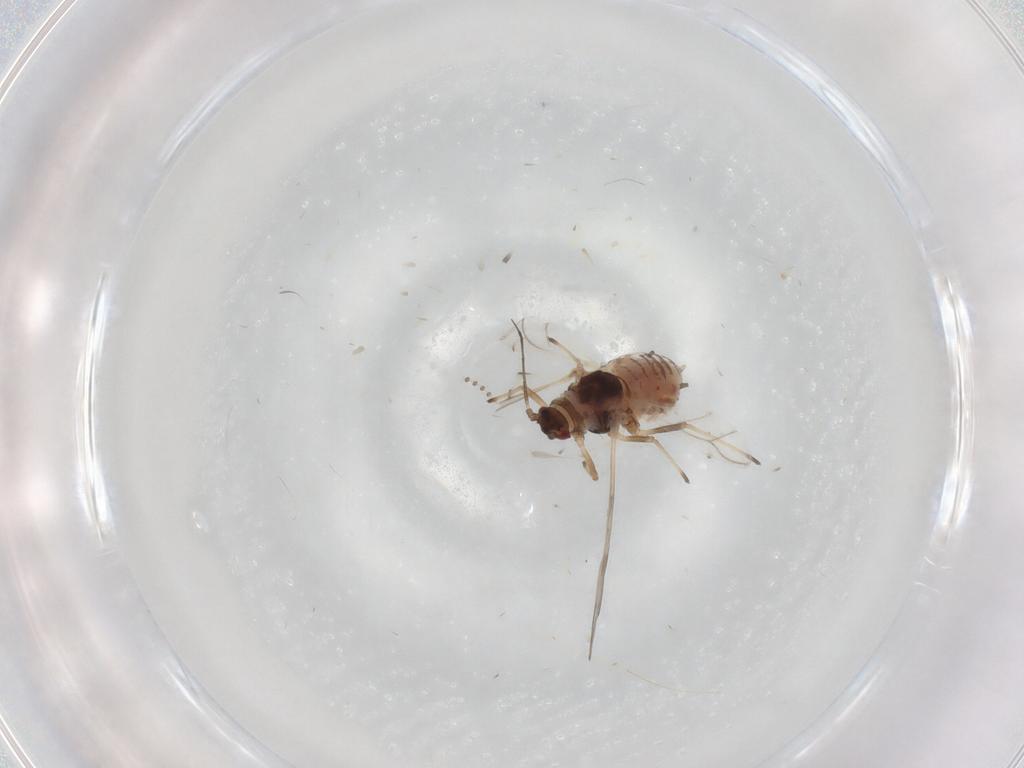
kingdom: Animalia
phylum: Arthropoda
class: Insecta
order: Hemiptera
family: Aphididae
